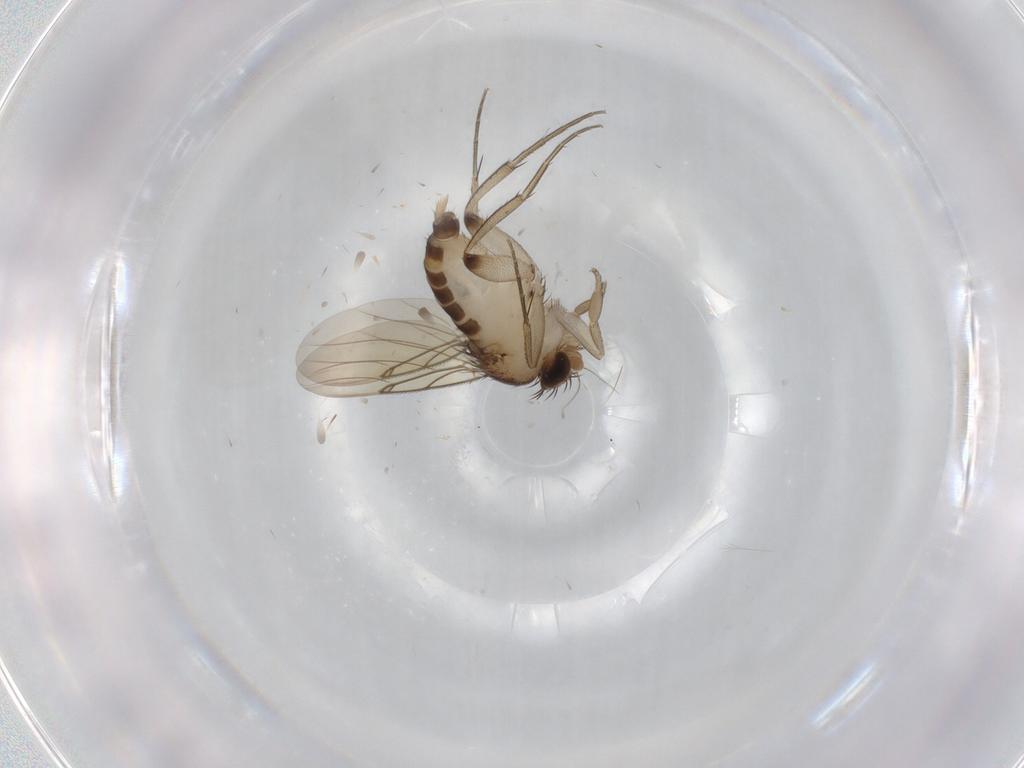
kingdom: Animalia
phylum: Arthropoda
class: Insecta
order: Diptera
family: Phoridae
